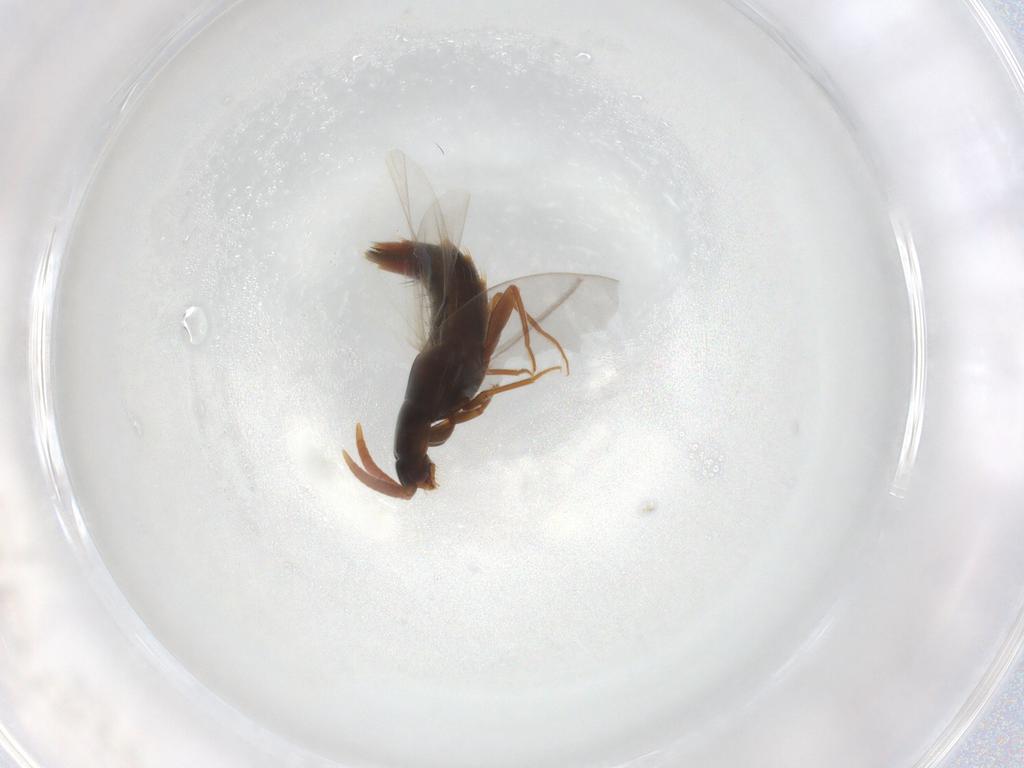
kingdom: Animalia
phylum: Arthropoda
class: Insecta
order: Coleoptera
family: Staphylinidae
